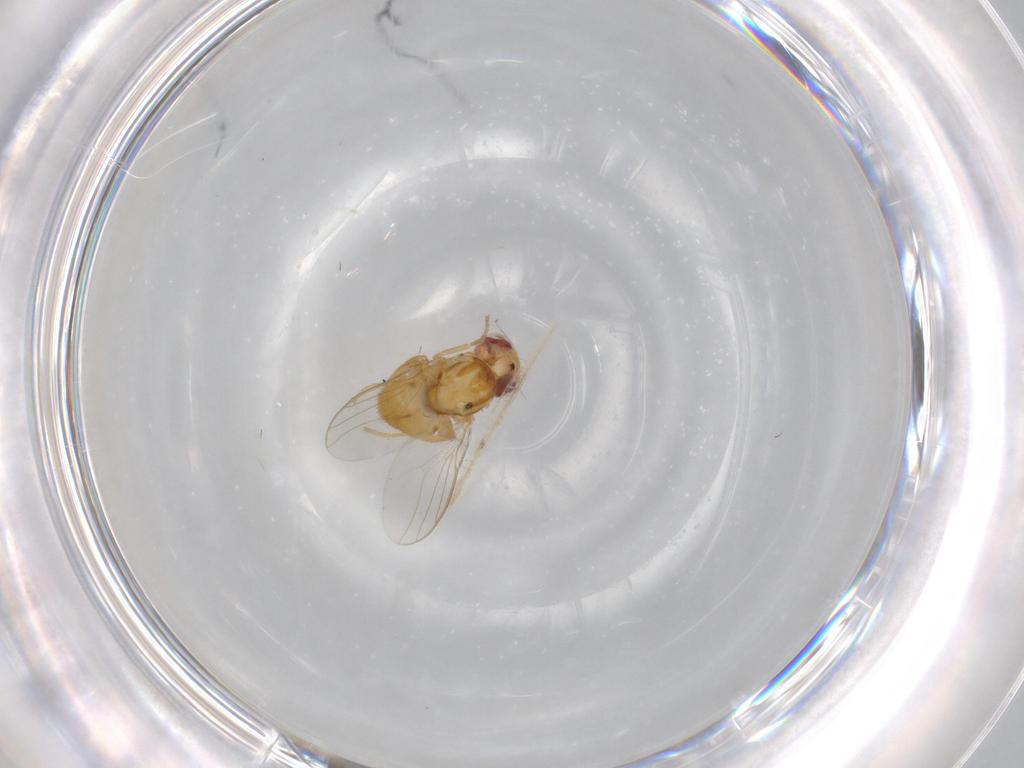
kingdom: Animalia
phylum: Arthropoda
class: Insecta
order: Diptera
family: Chloropidae
